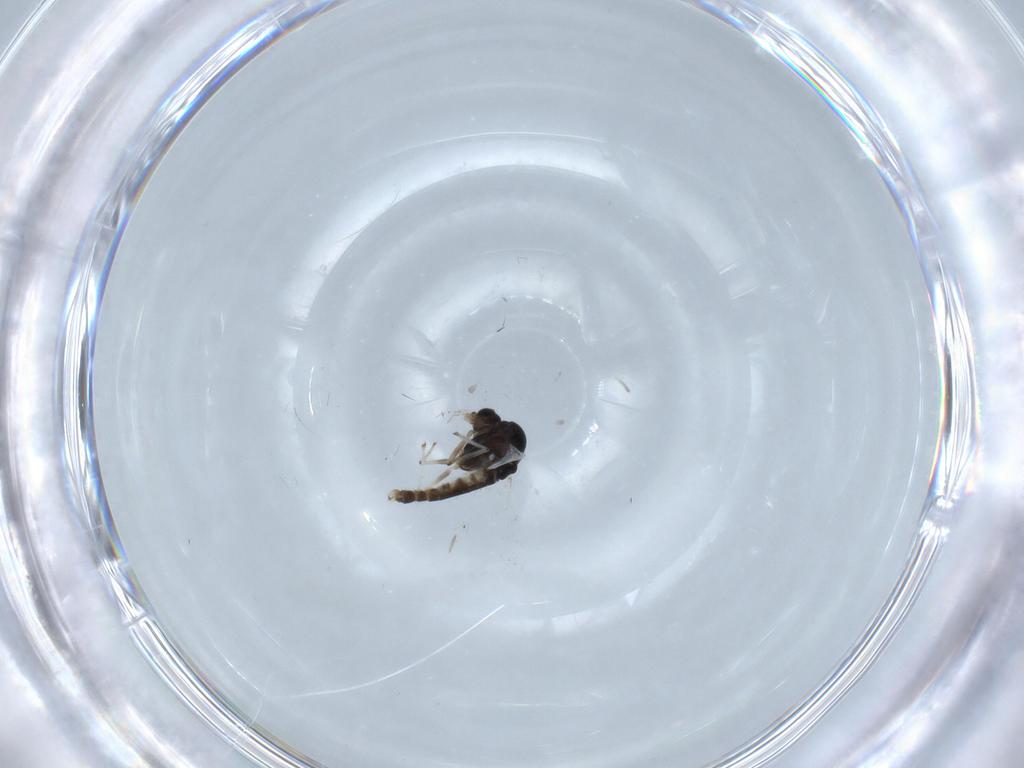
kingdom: Animalia
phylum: Arthropoda
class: Insecta
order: Diptera
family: Chironomidae
